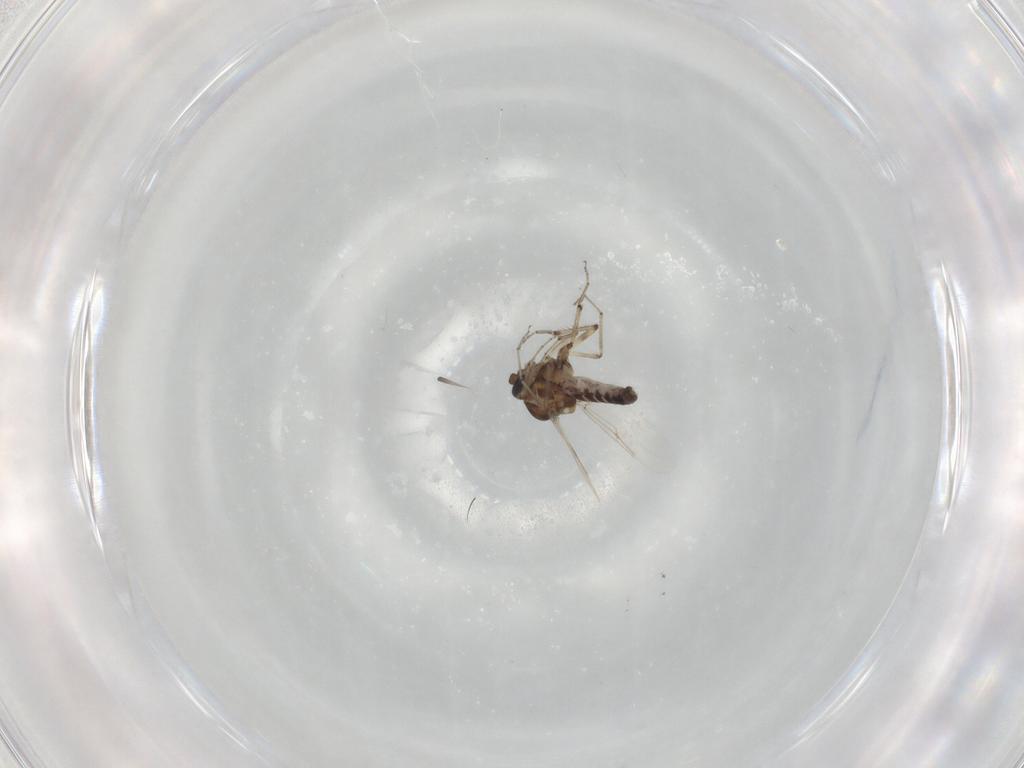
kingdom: Animalia
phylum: Arthropoda
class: Insecta
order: Diptera
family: Ceratopogonidae
